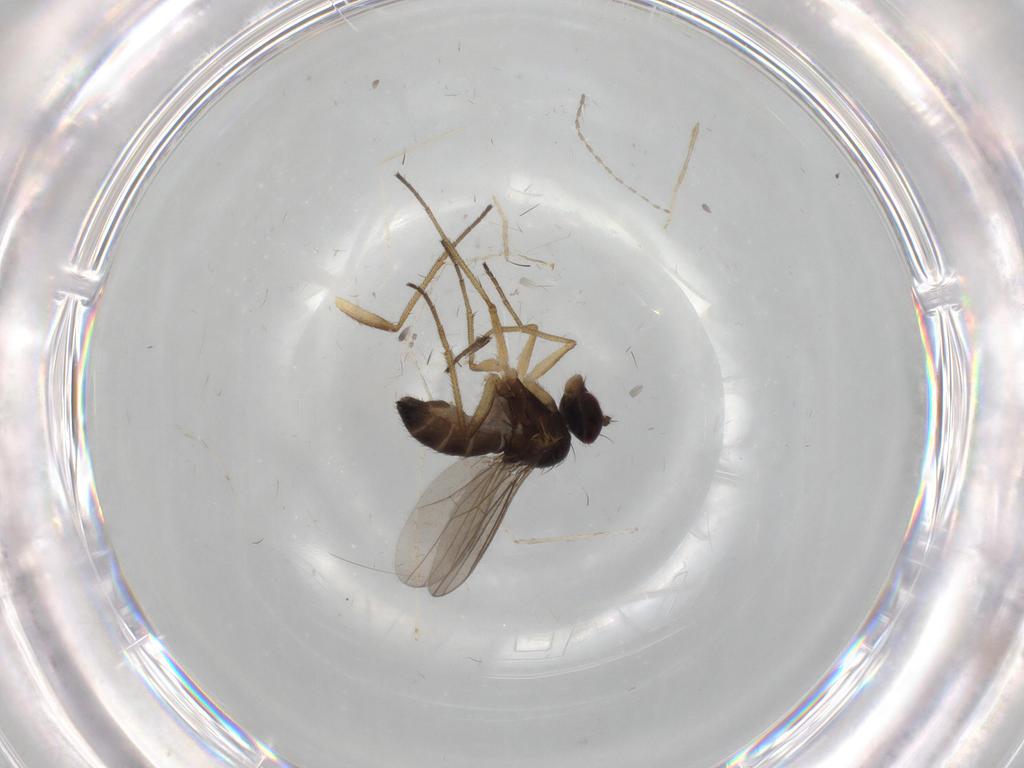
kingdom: Animalia
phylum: Arthropoda
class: Insecta
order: Diptera
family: Dolichopodidae
